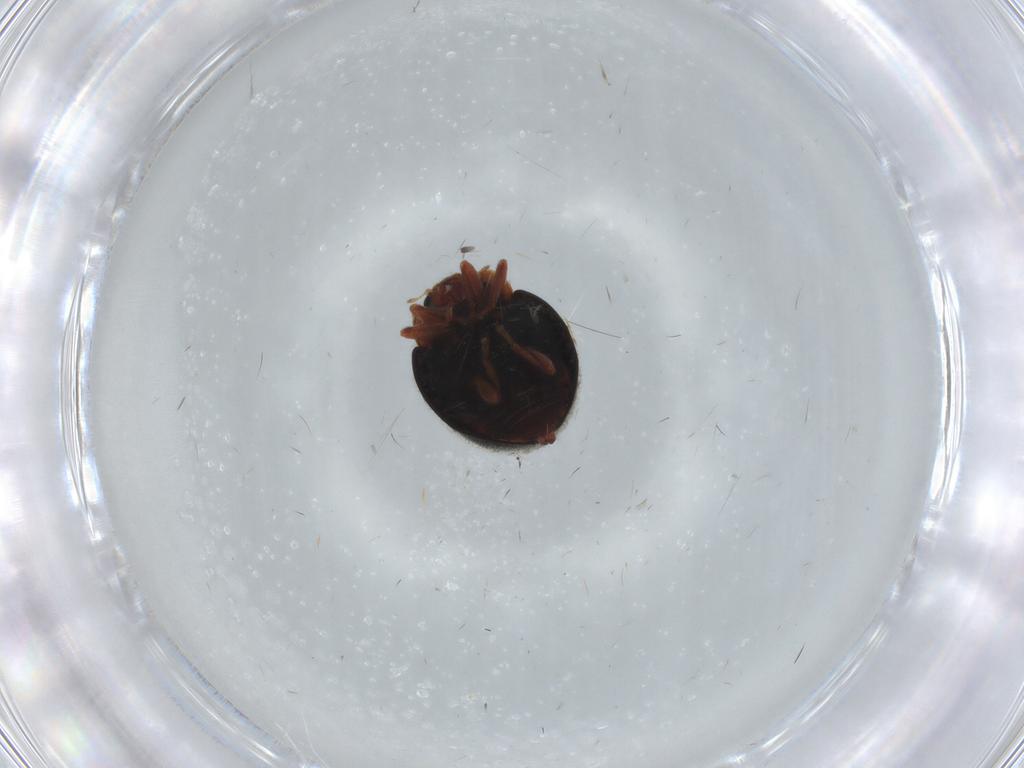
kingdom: Animalia
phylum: Arthropoda
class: Insecta
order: Coleoptera
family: Coccinellidae
